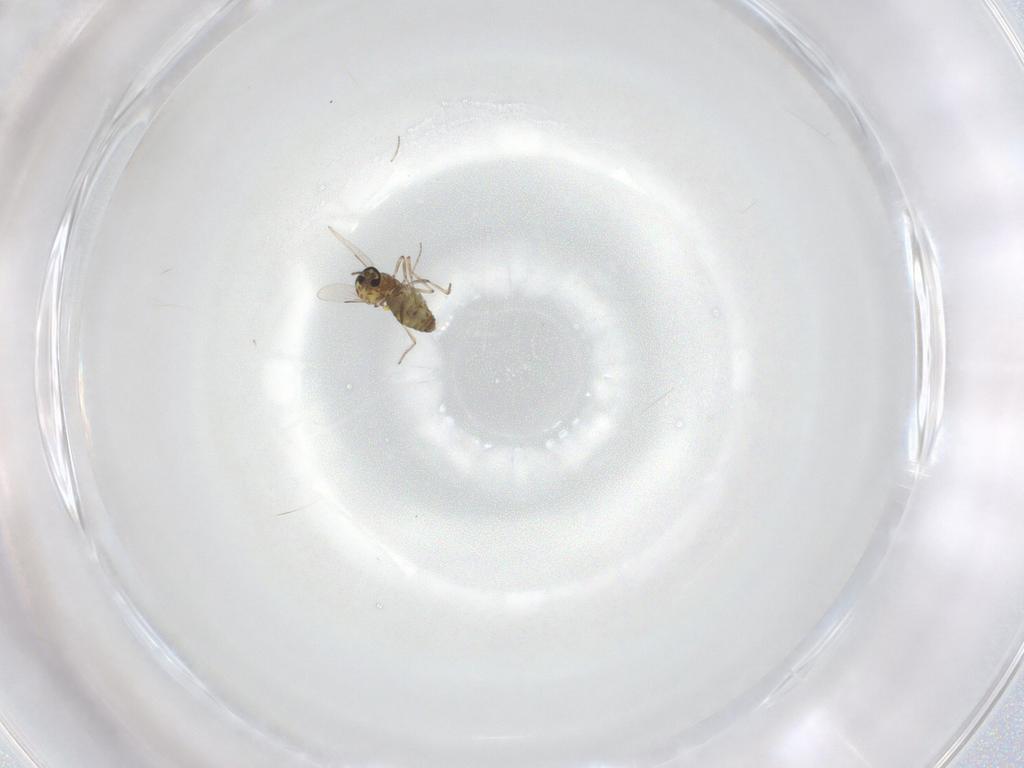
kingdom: Animalia
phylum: Arthropoda
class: Insecta
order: Diptera
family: Ceratopogonidae
